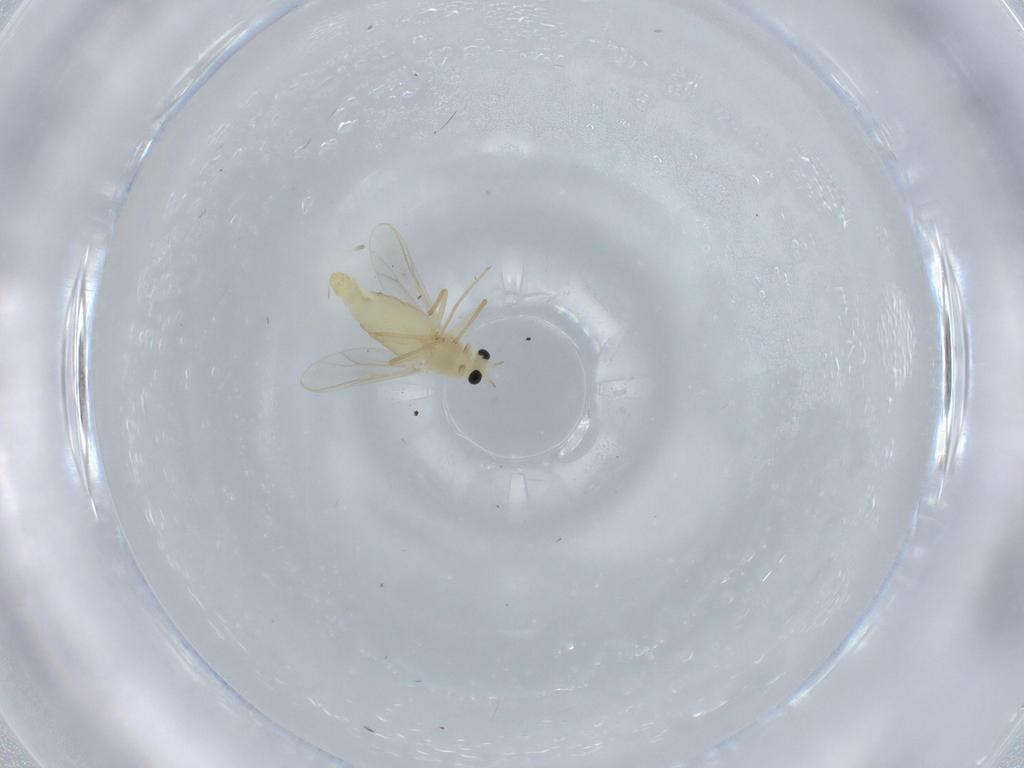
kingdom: Animalia
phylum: Arthropoda
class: Insecta
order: Diptera
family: Chironomidae
